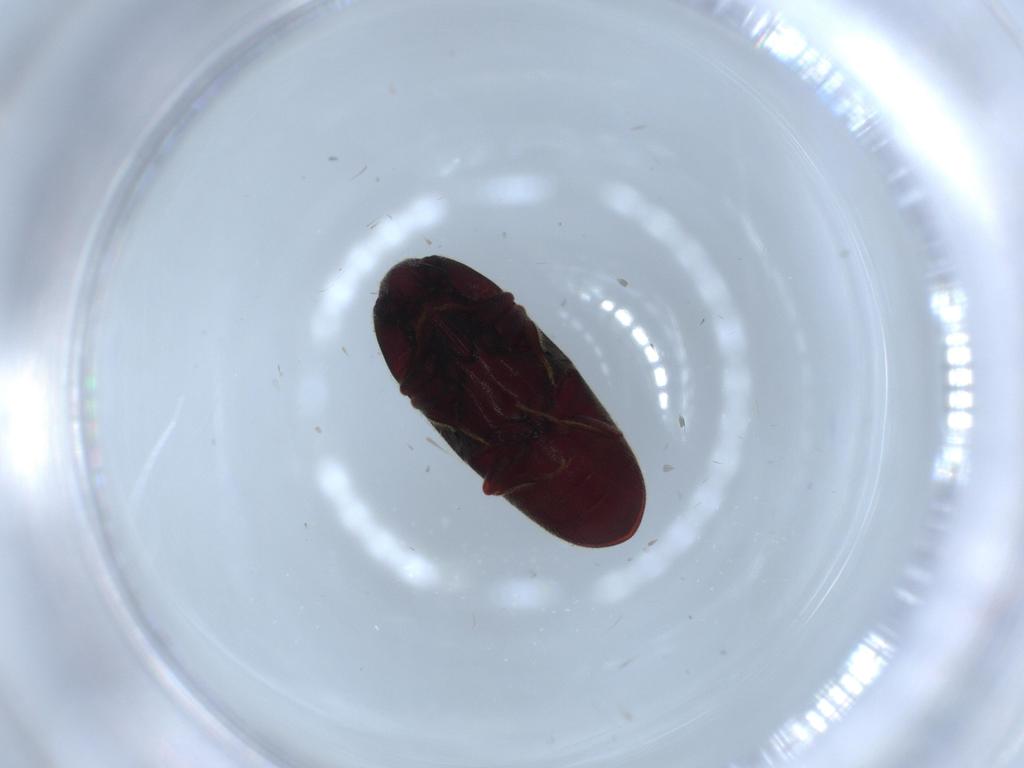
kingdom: Animalia
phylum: Arthropoda
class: Insecta
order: Coleoptera
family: Throscidae
